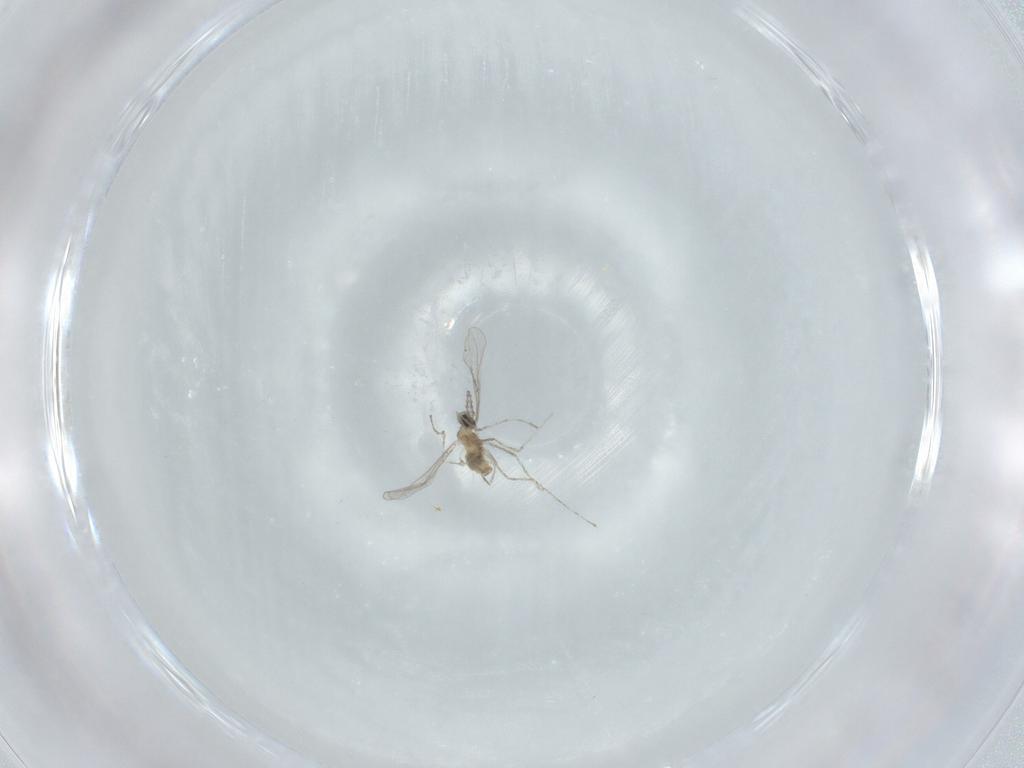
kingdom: Animalia
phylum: Arthropoda
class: Insecta
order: Diptera
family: Cecidomyiidae
